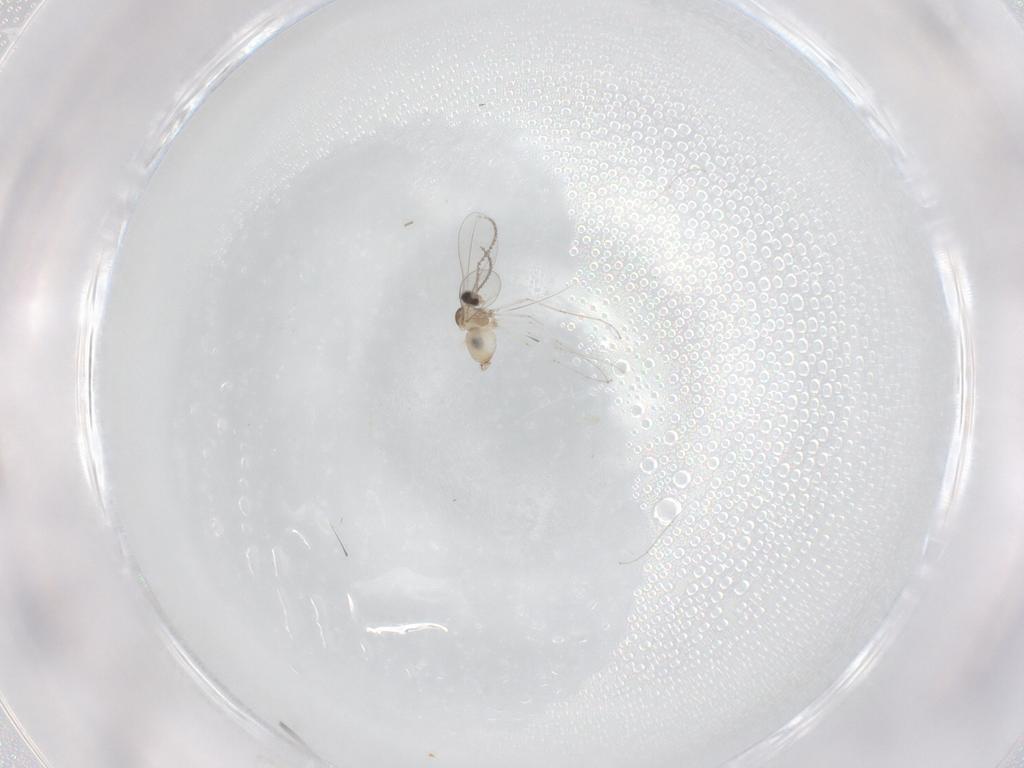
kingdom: Animalia
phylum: Arthropoda
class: Insecta
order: Diptera
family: Cecidomyiidae
